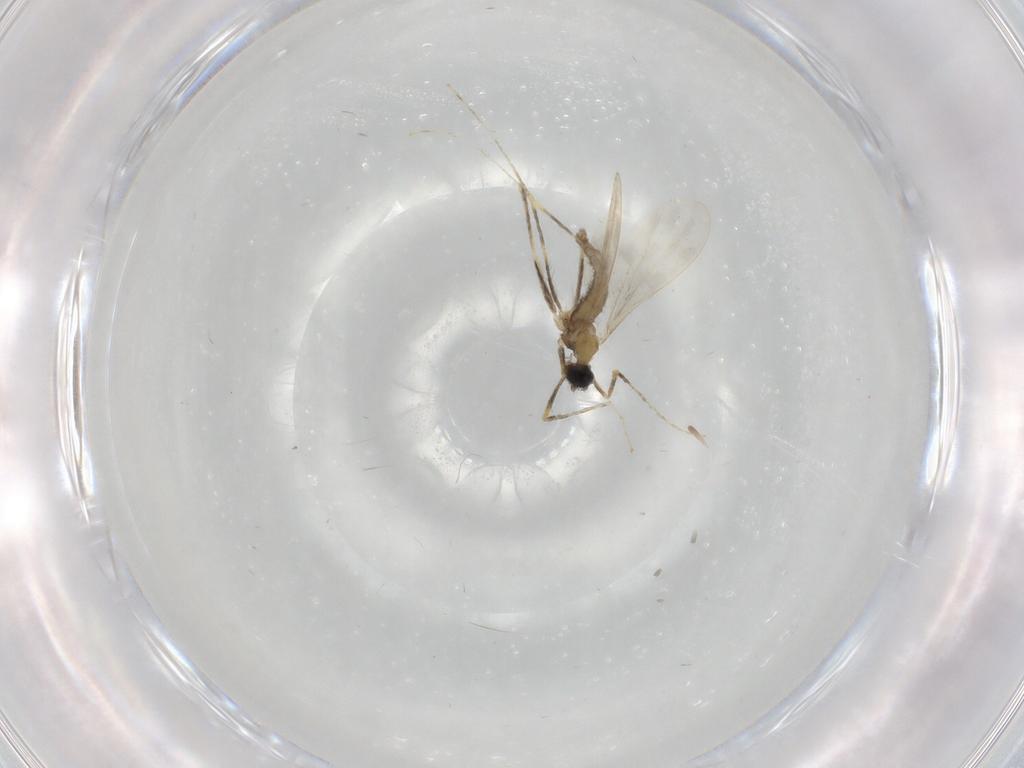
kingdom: Animalia
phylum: Arthropoda
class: Insecta
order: Diptera
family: Cecidomyiidae
